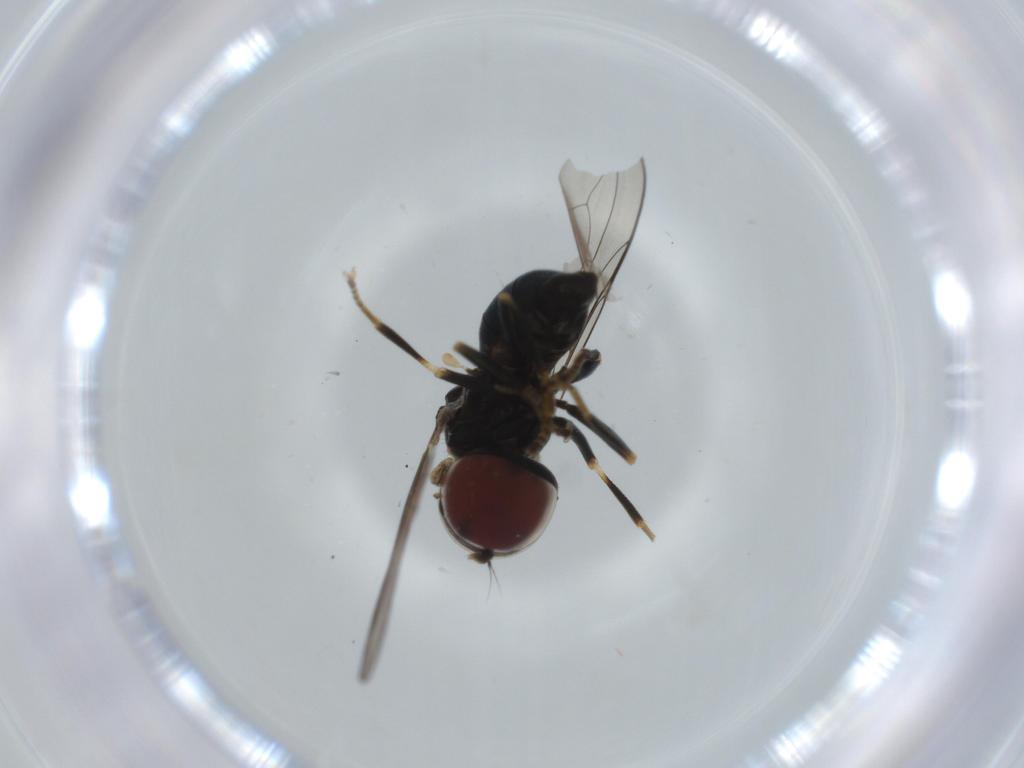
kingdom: Animalia
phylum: Arthropoda
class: Insecta
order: Diptera
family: Pipunculidae
